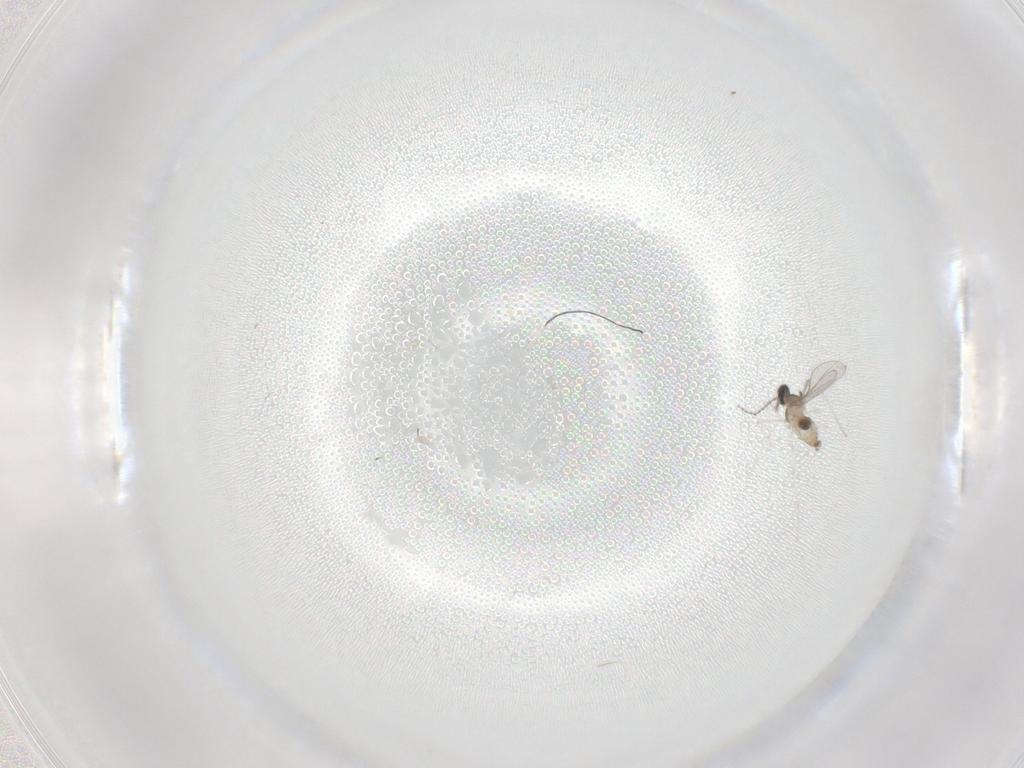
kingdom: Animalia
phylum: Arthropoda
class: Insecta
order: Diptera
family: Cecidomyiidae
